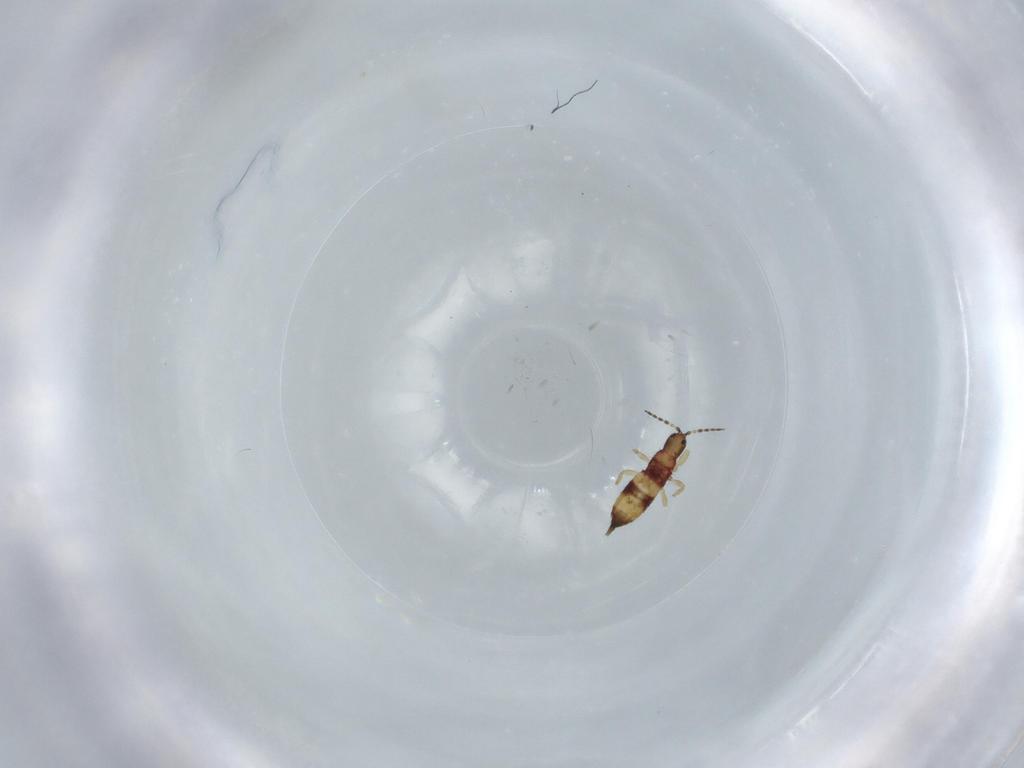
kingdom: Animalia
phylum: Arthropoda
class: Insecta
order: Thysanoptera
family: Phlaeothripidae
